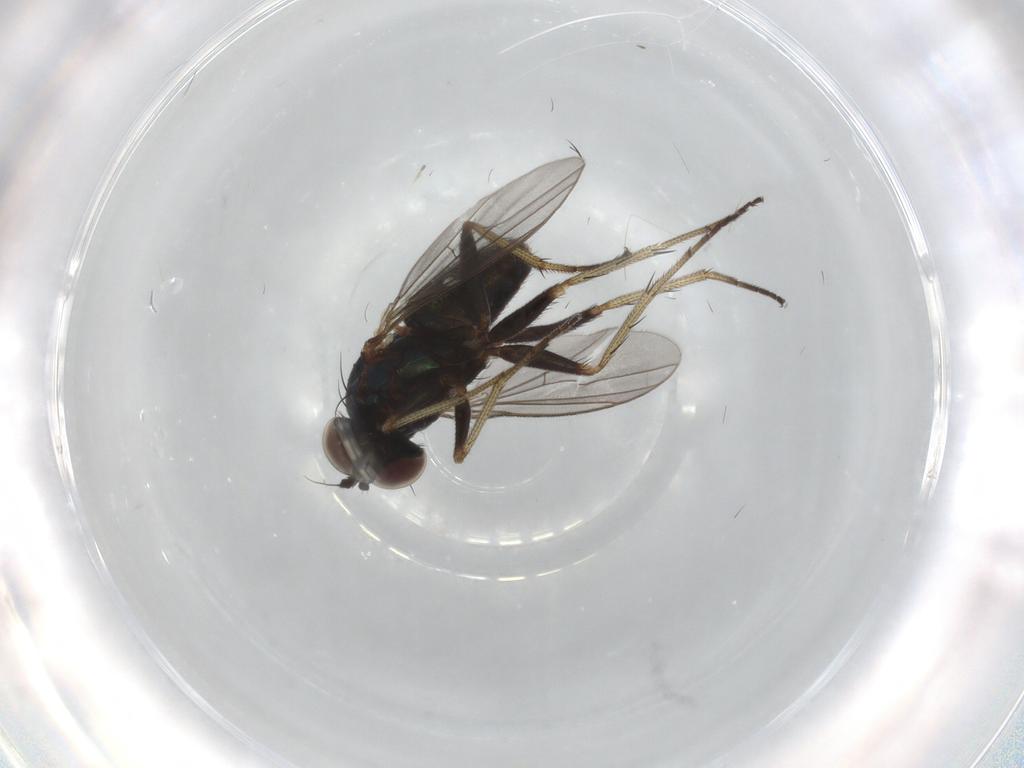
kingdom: Animalia
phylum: Arthropoda
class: Insecta
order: Diptera
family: Dolichopodidae
